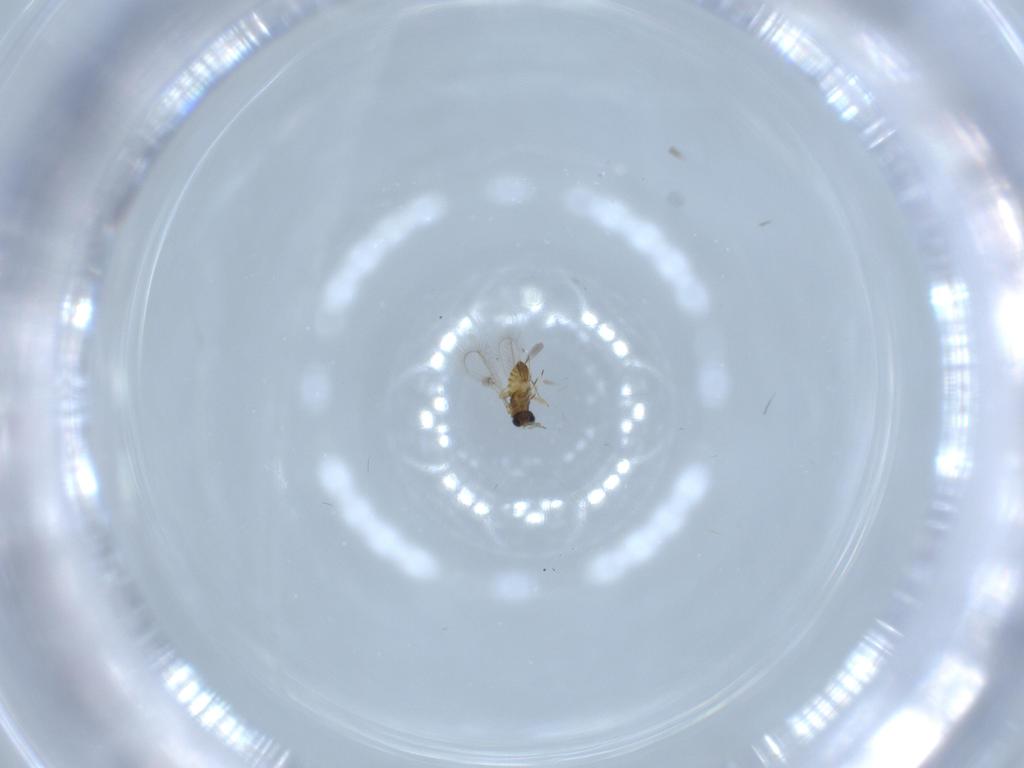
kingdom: Animalia
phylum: Arthropoda
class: Insecta
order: Hymenoptera
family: Trichogrammatidae
